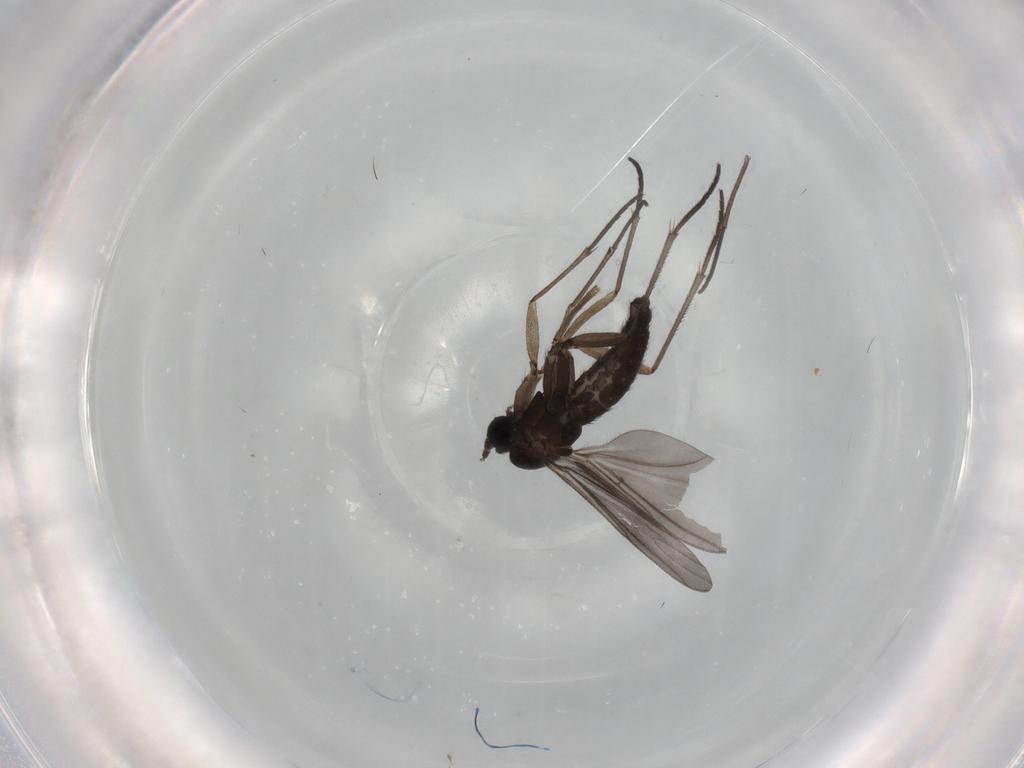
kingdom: Animalia
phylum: Arthropoda
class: Insecta
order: Diptera
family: Sciaridae
